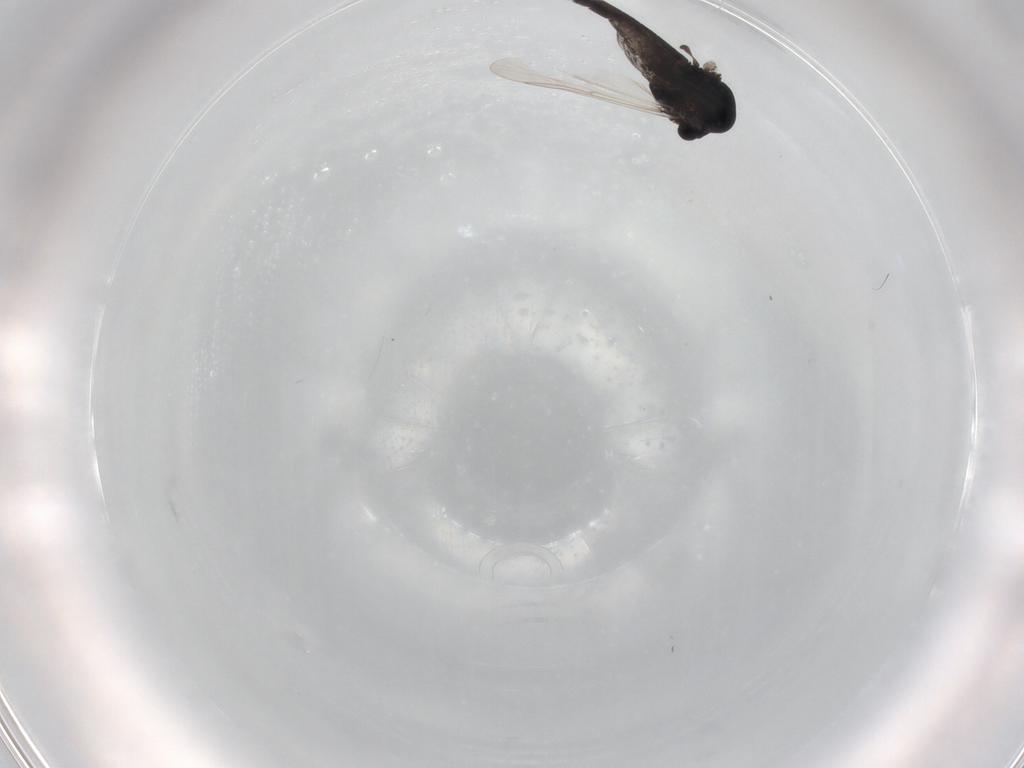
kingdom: Animalia
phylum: Arthropoda
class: Insecta
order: Diptera
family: Chironomidae
